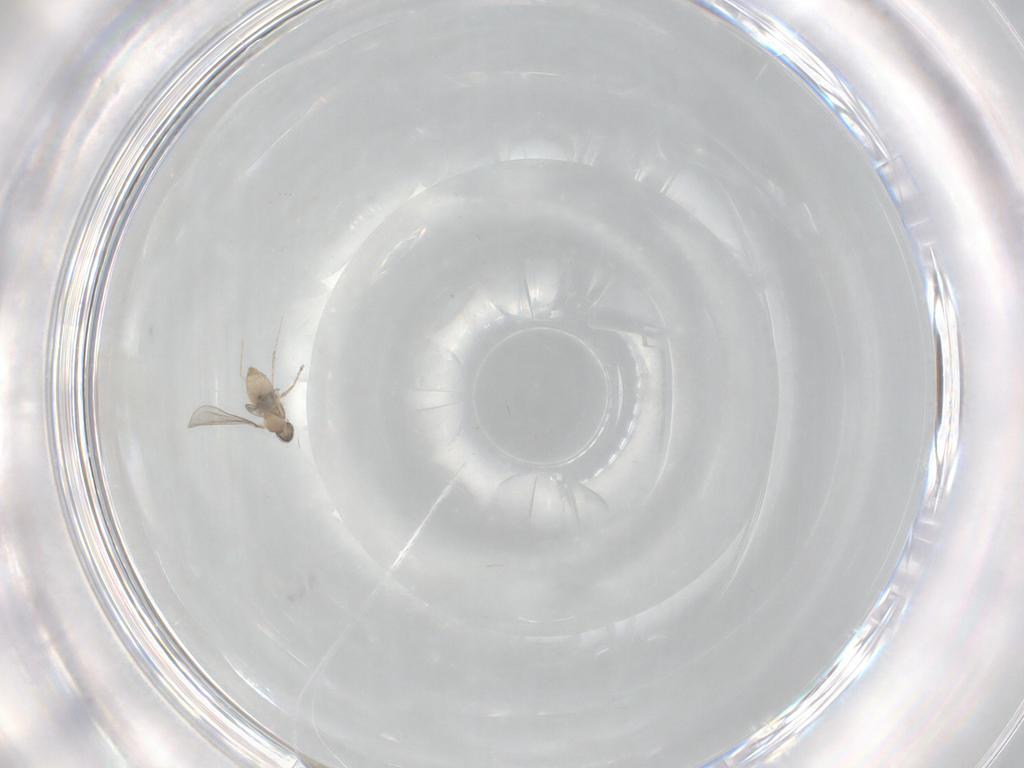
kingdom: Animalia
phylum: Arthropoda
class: Insecta
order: Diptera
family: Cecidomyiidae
